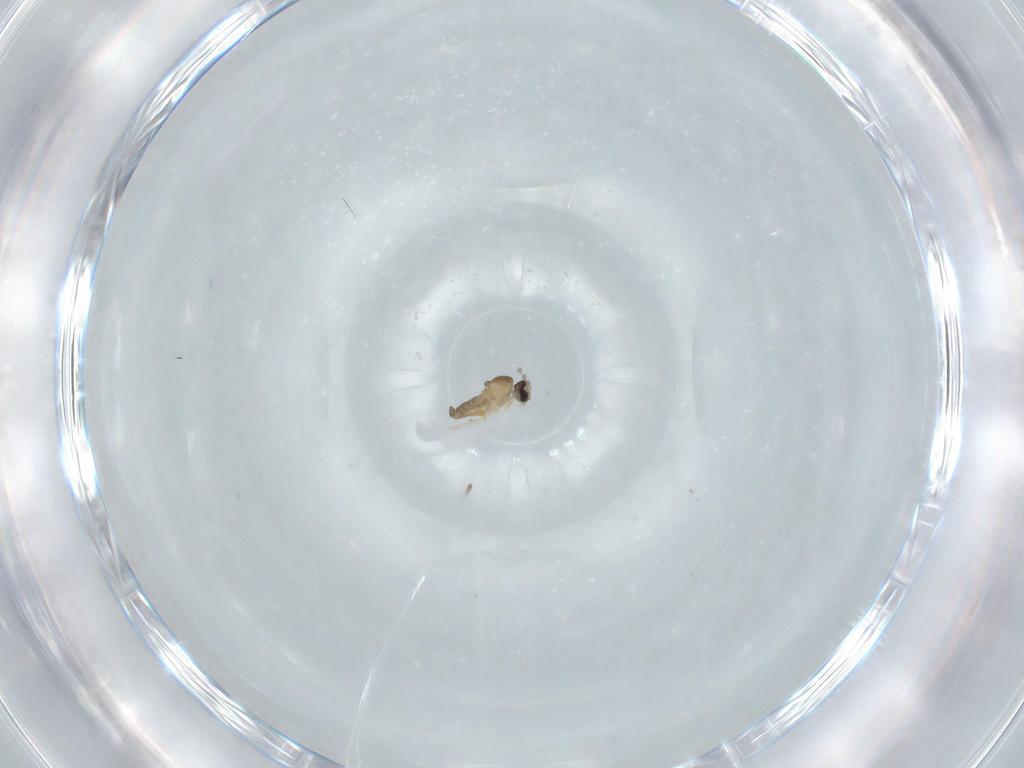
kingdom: Animalia
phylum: Arthropoda
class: Insecta
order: Diptera
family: Cecidomyiidae
